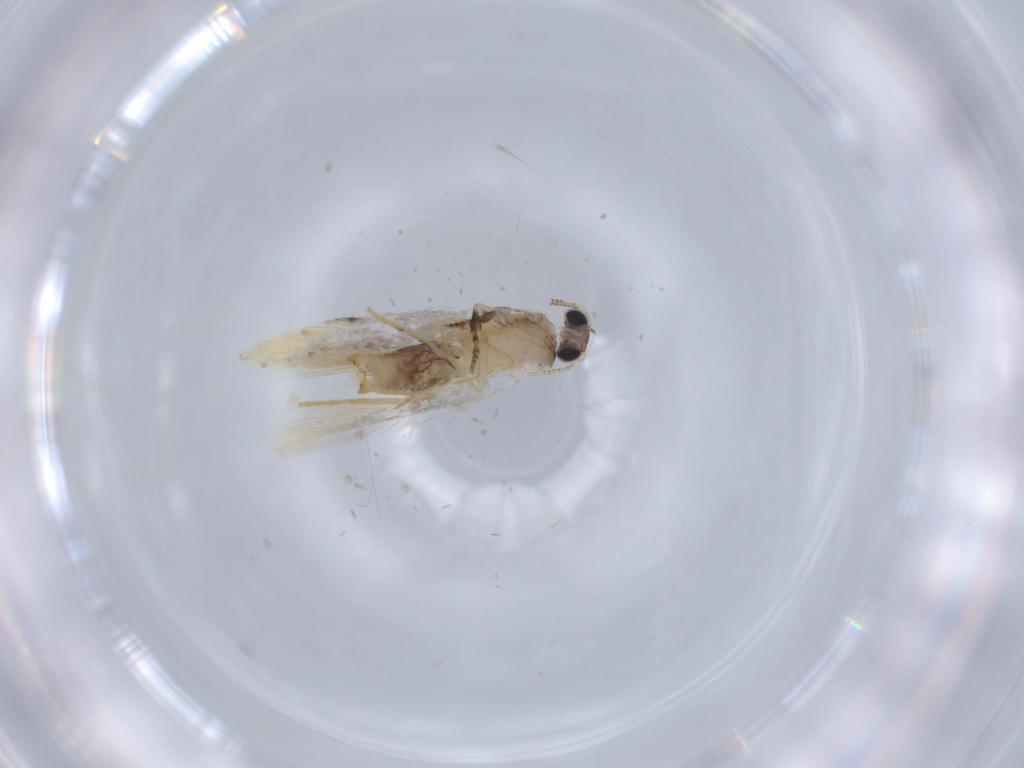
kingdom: Animalia
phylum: Arthropoda
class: Insecta
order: Lepidoptera
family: Tineidae
